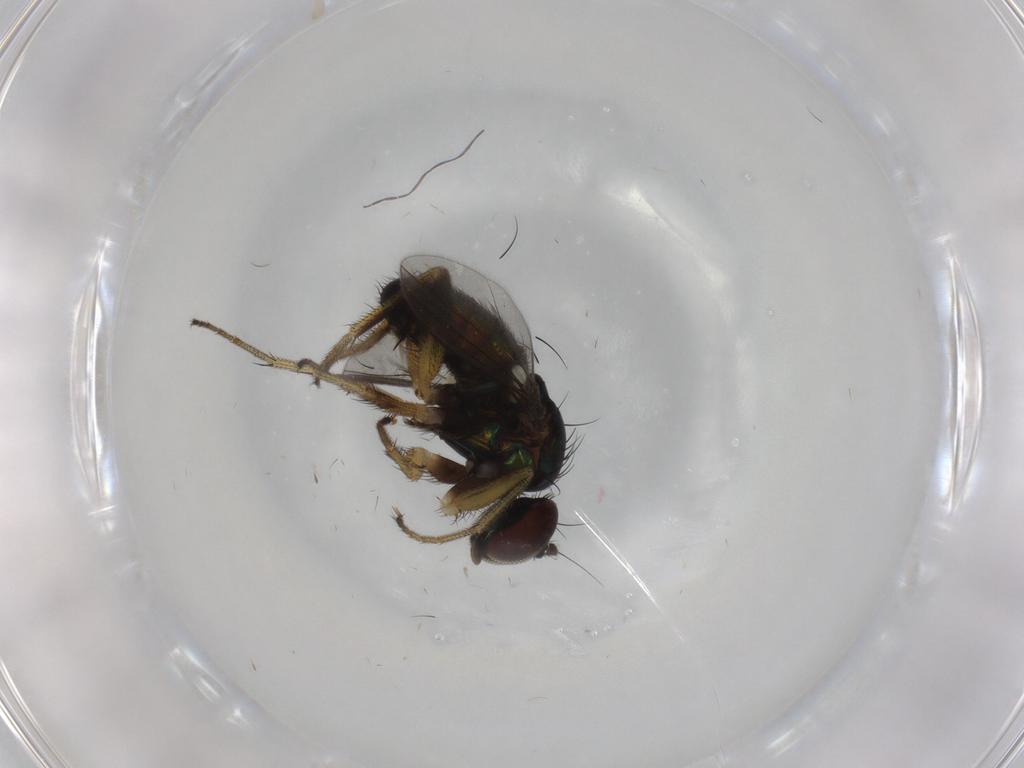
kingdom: Animalia
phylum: Arthropoda
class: Insecta
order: Diptera
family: Dolichopodidae
